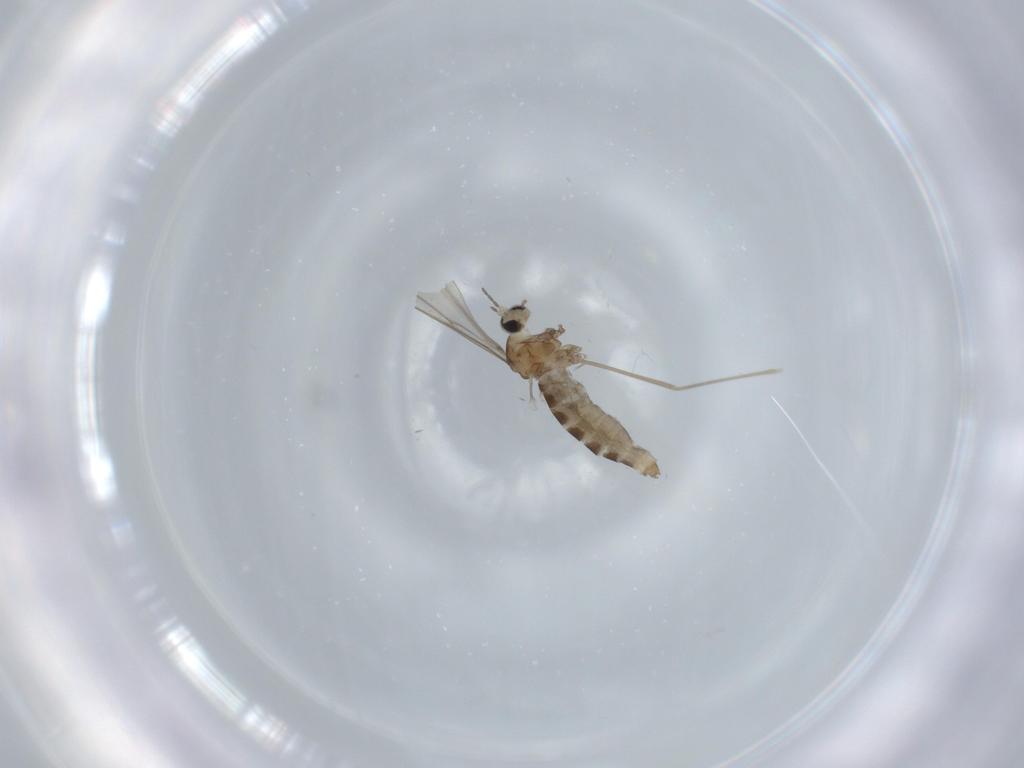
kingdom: Animalia
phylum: Arthropoda
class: Insecta
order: Diptera
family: Cecidomyiidae
